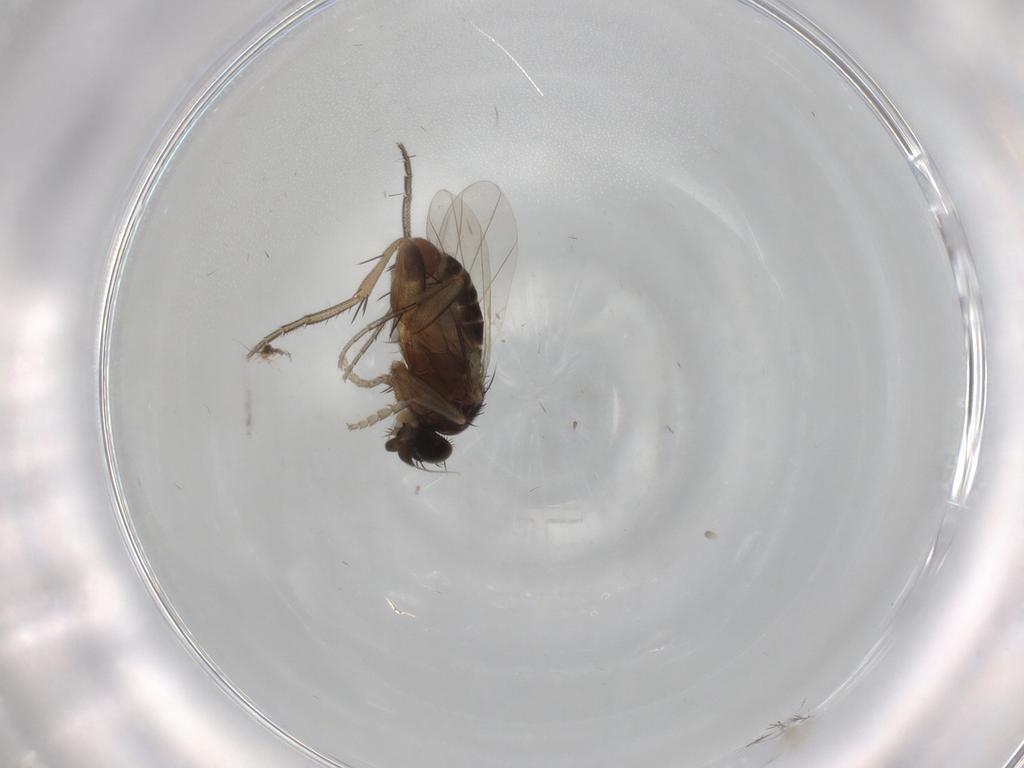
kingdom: Animalia
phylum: Arthropoda
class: Insecta
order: Diptera
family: Phoridae
